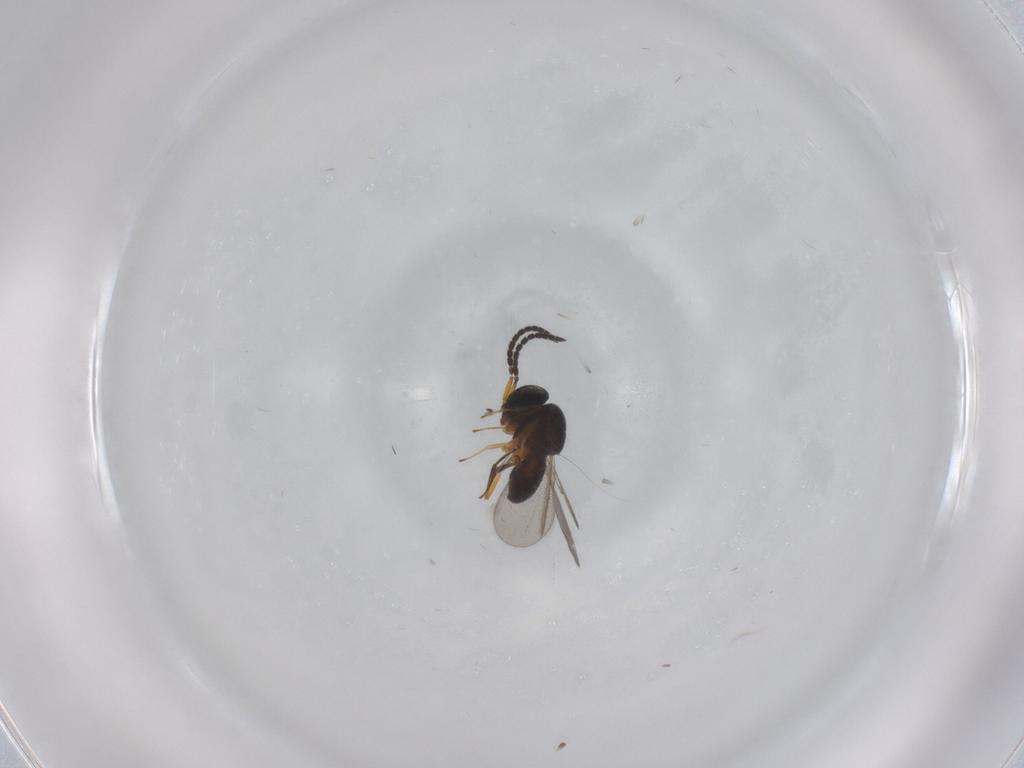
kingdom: Animalia
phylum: Arthropoda
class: Insecta
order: Hymenoptera
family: Scelionidae
